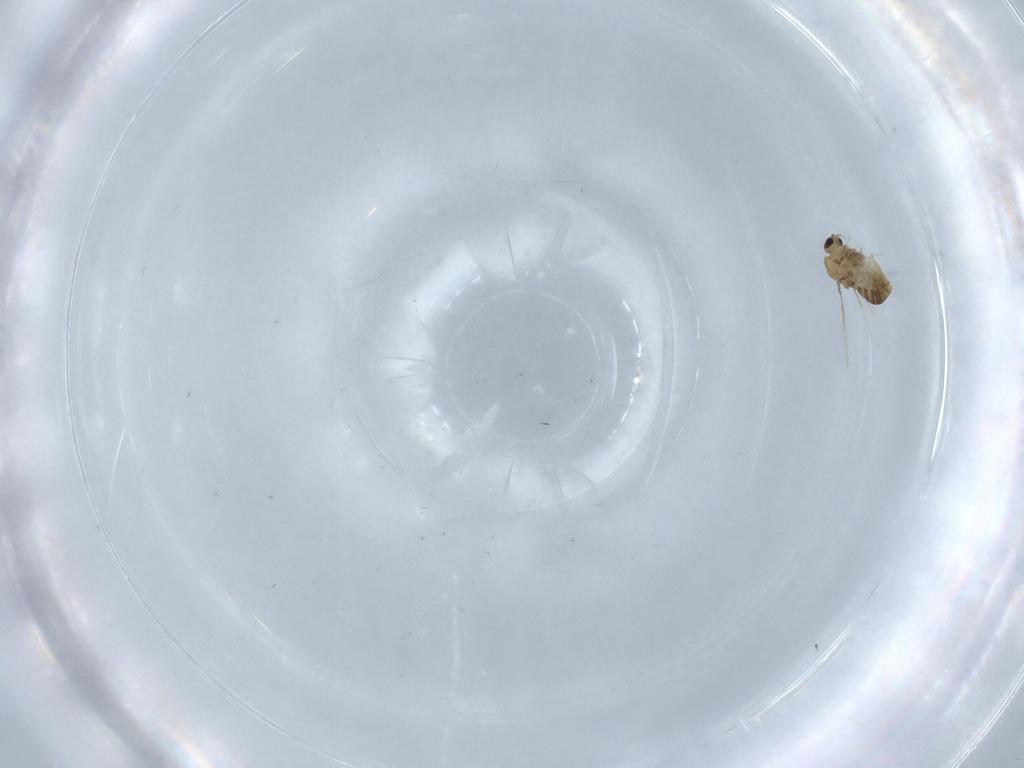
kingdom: Animalia
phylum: Arthropoda
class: Insecta
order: Diptera
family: Chironomidae
